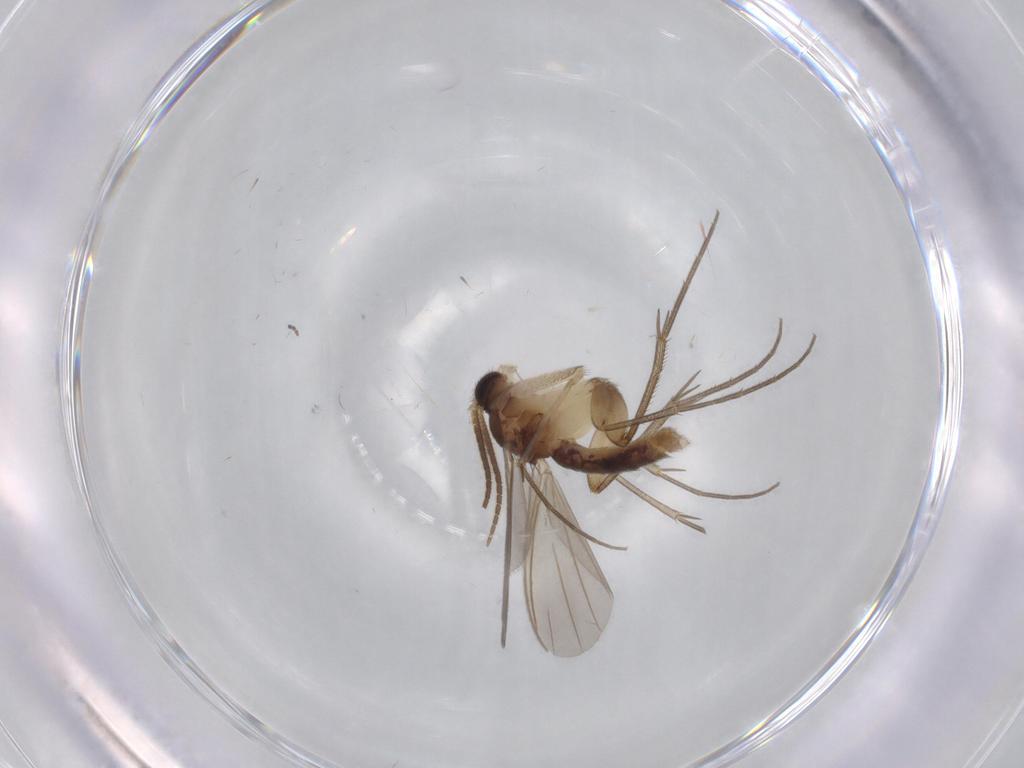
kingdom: Animalia
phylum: Arthropoda
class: Insecta
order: Diptera
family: Mycetophilidae
